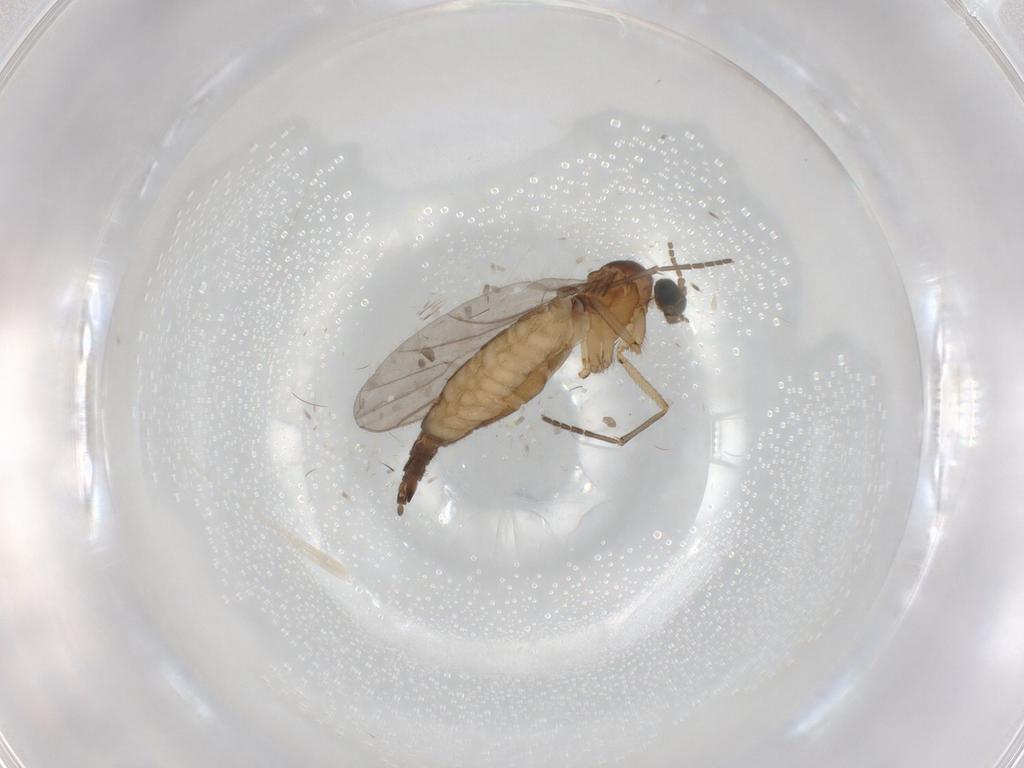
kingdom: Animalia
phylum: Arthropoda
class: Insecta
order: Diptera
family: Sciaridae
